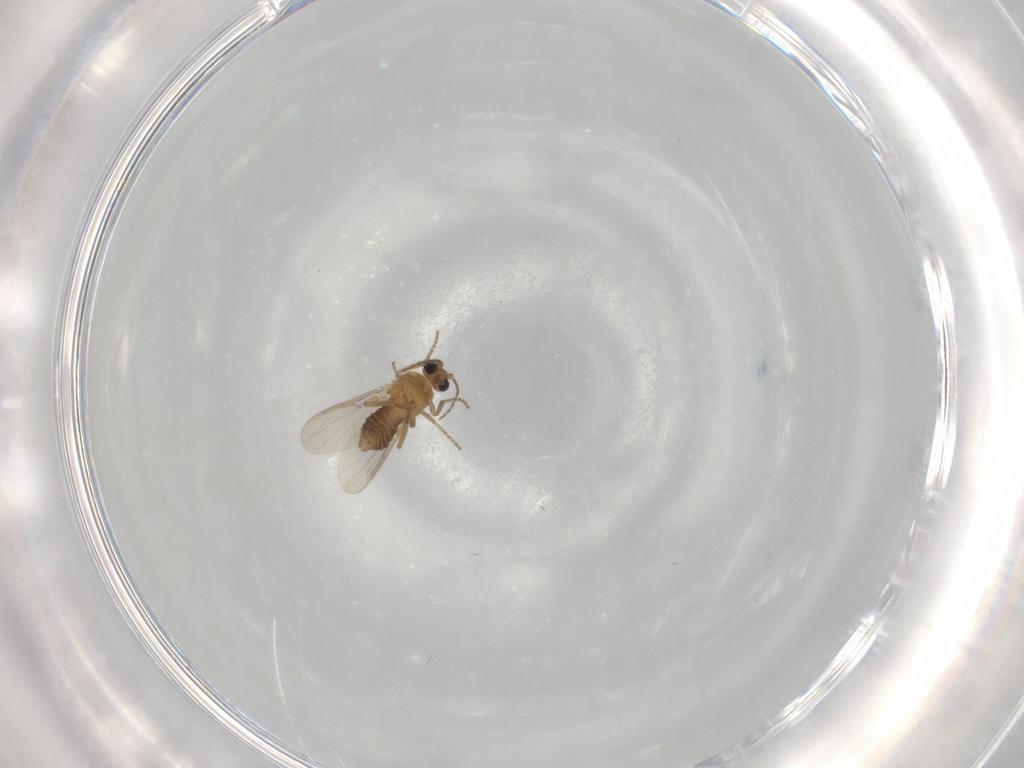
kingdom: Animalia
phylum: Arthropoda
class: Insecta
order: Diptera
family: Ceratopogonidae
